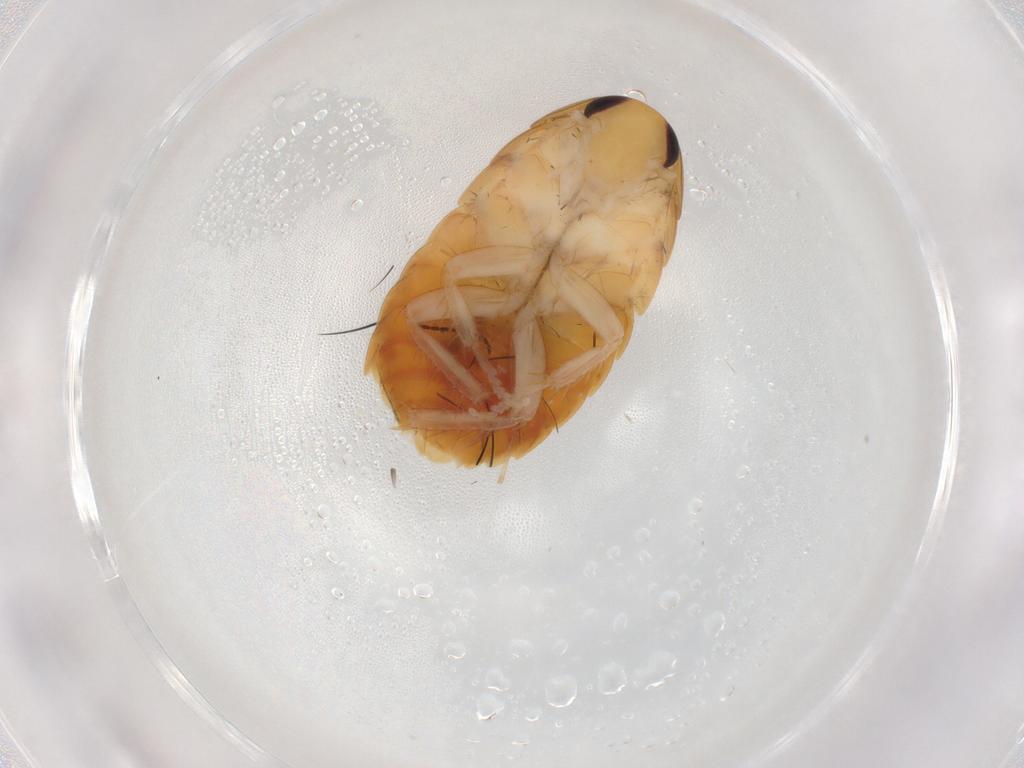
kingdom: Animalia
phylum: Arthropoda
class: Insecta
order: Blattodea
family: Blaberidae
